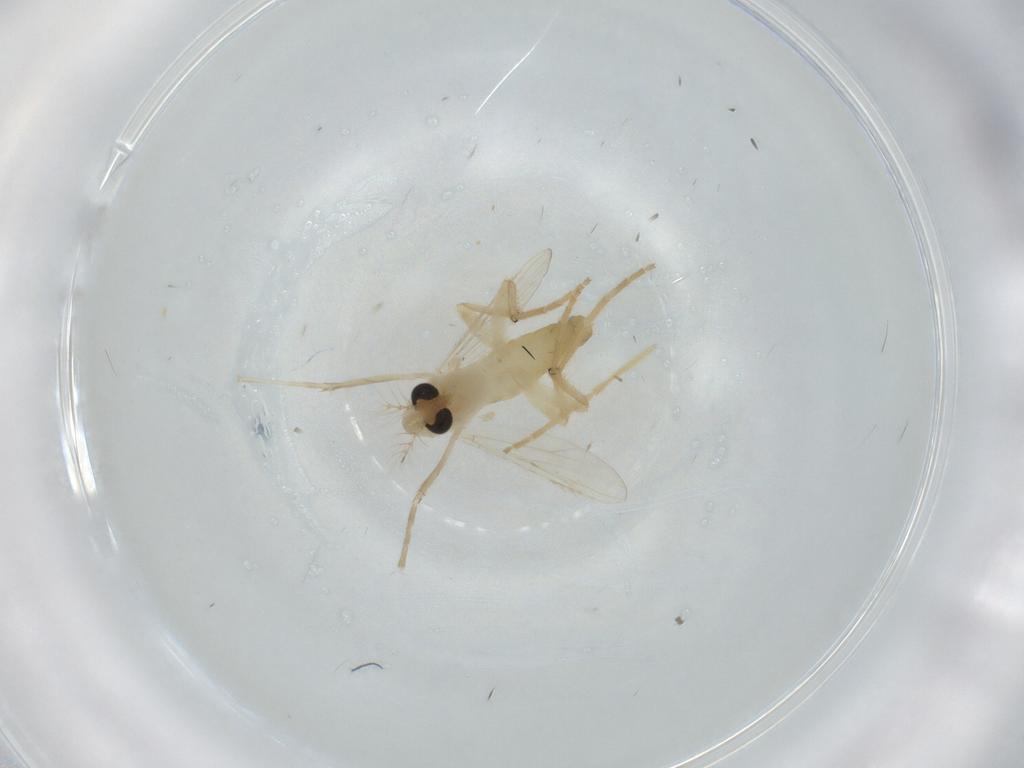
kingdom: Animalia
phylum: Arthropoda
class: Insecta
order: Diptera
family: Chironomidae
